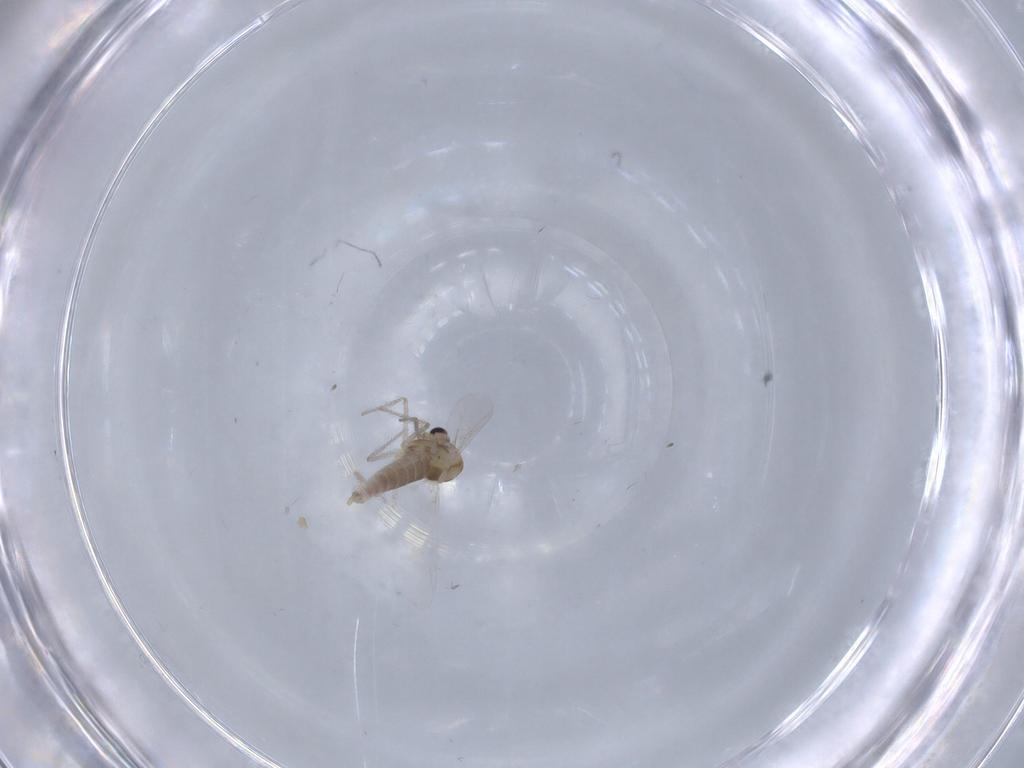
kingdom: Animalia
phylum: Arthropoda
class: Insecta
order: Diptera
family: Chironomidae
